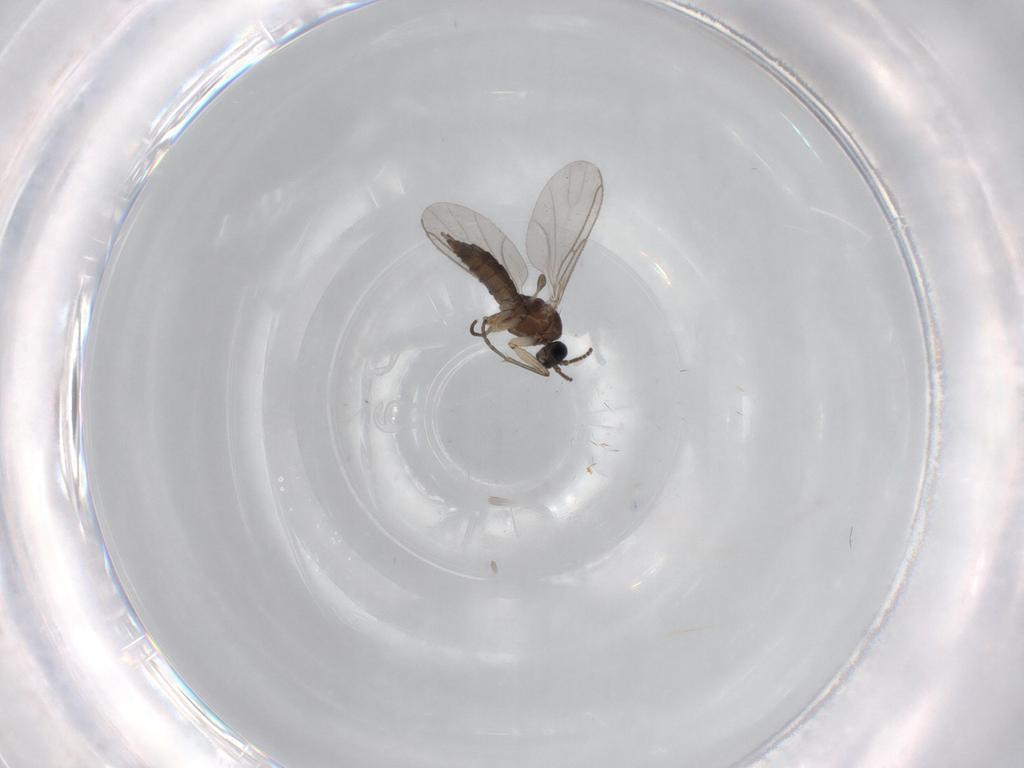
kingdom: Animalia
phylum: Arthropoda
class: Insecta
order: Diptera
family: Sciaridae
